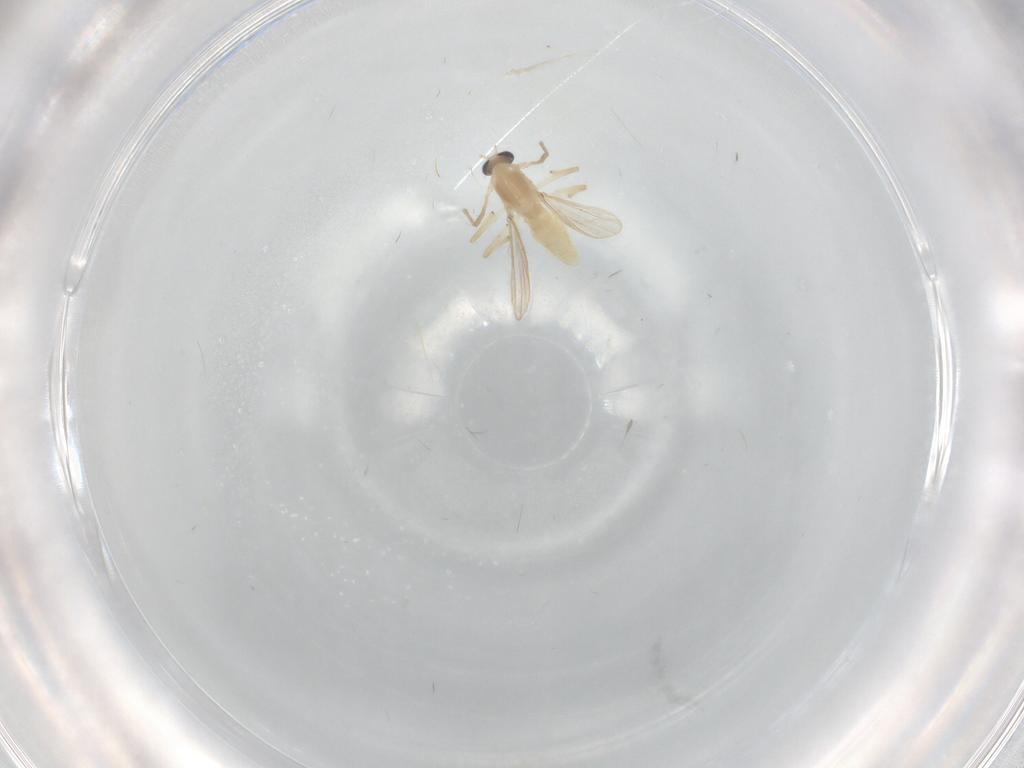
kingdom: Animalia
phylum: Arthropoda
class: Insecta
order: Diptera
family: Chironomidae
